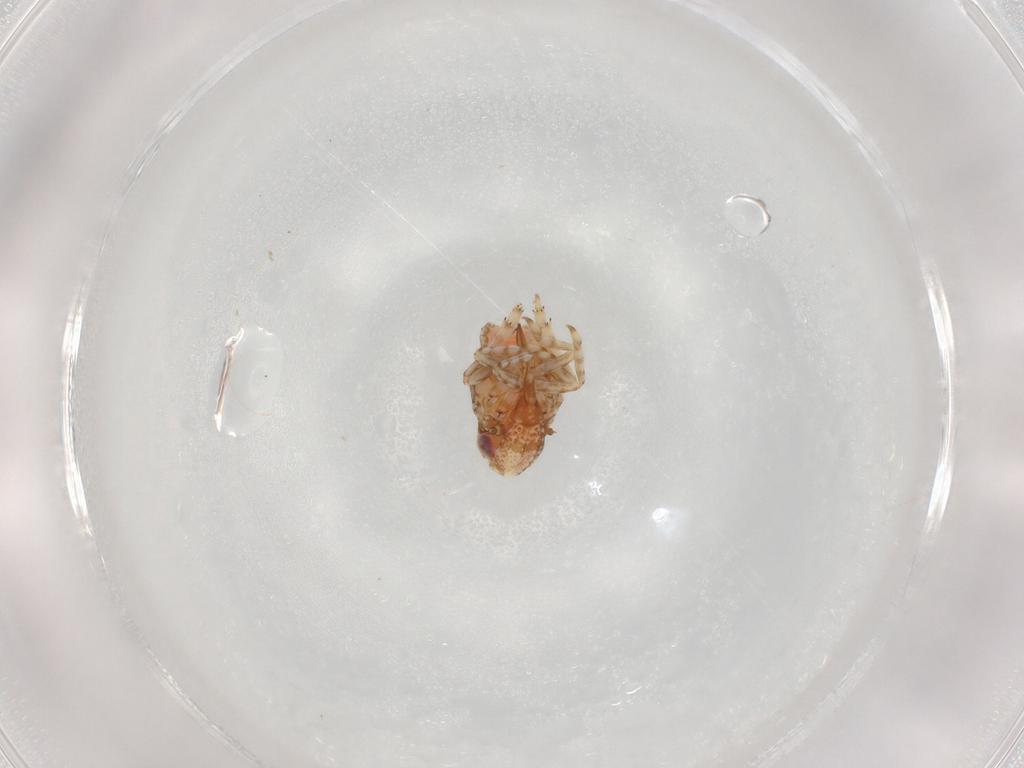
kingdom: Animalia
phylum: Arthropoda
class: Insecta
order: Hemiptera
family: Nogodinidae
